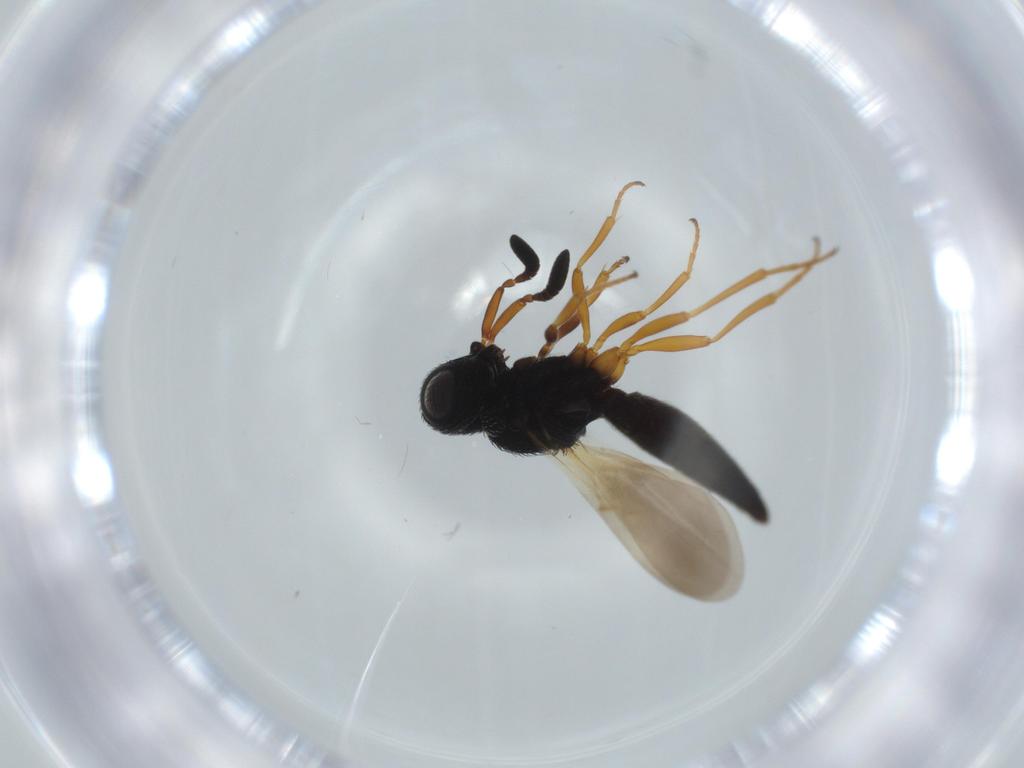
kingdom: Animalia
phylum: Arthropoda
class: Insecta
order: Hymenoptera
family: Scelionidae
